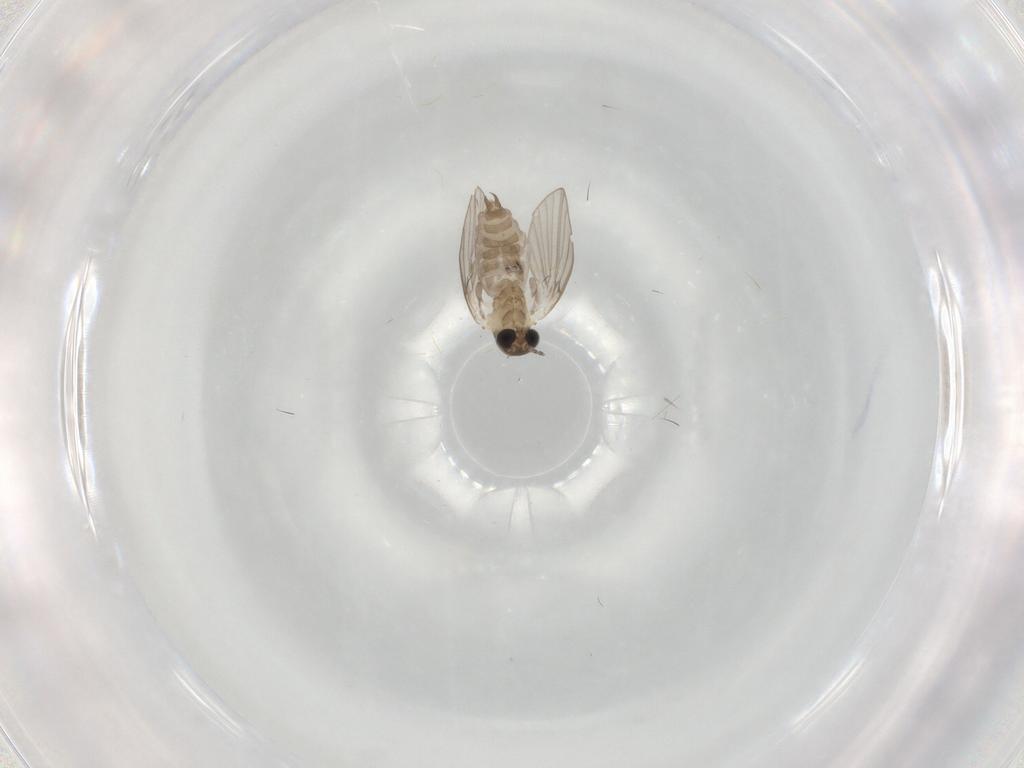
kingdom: Animalia
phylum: Arthropoda
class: Insecta
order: Diptera
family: Psychodidae
